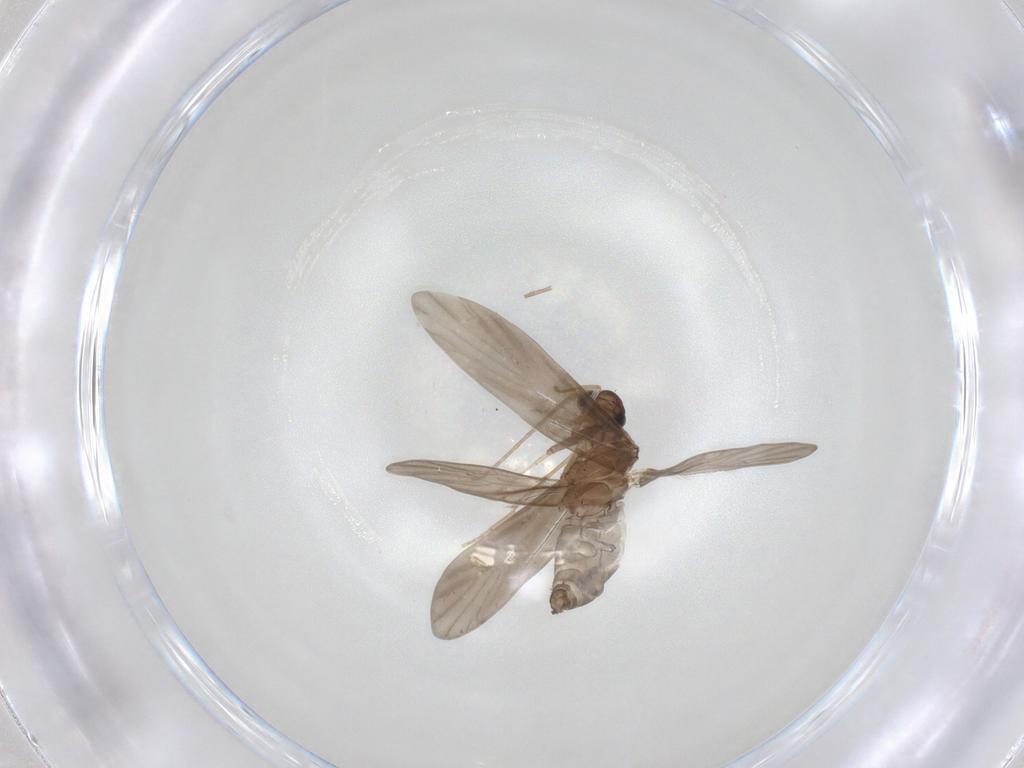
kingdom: Animalia
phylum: Arthropoda
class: Insecta
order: Trichoptera
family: Xiphocentronidae
